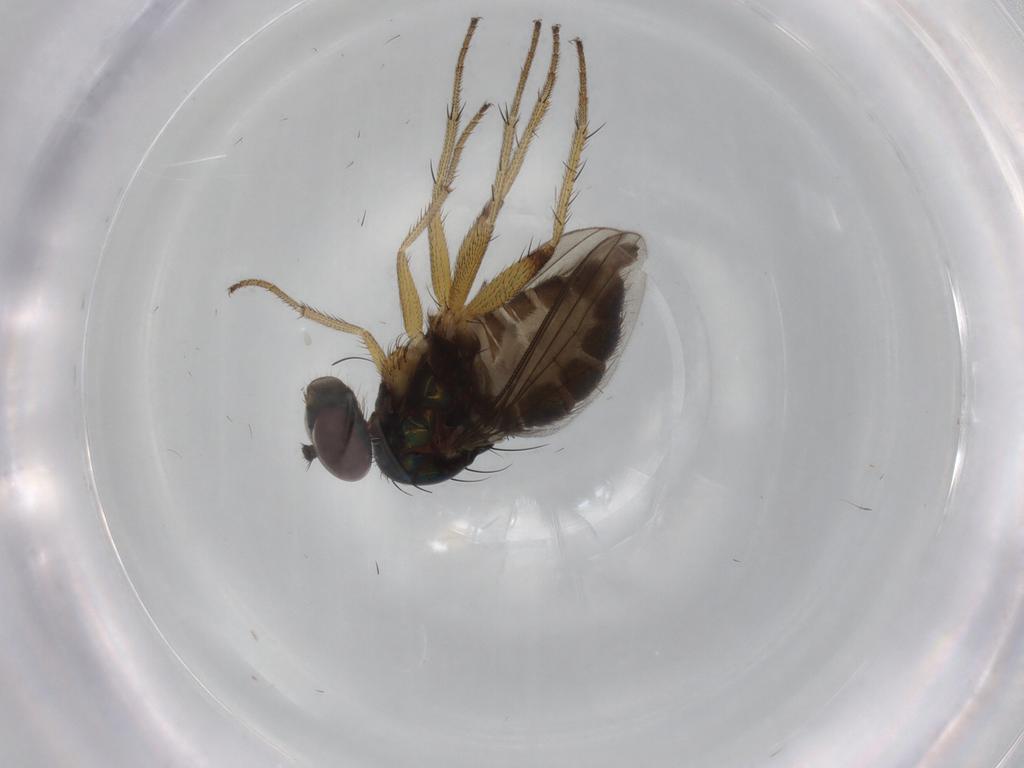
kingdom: Animalia
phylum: Arthropoda
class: Insecta
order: Diptera
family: Dolichopodidae
